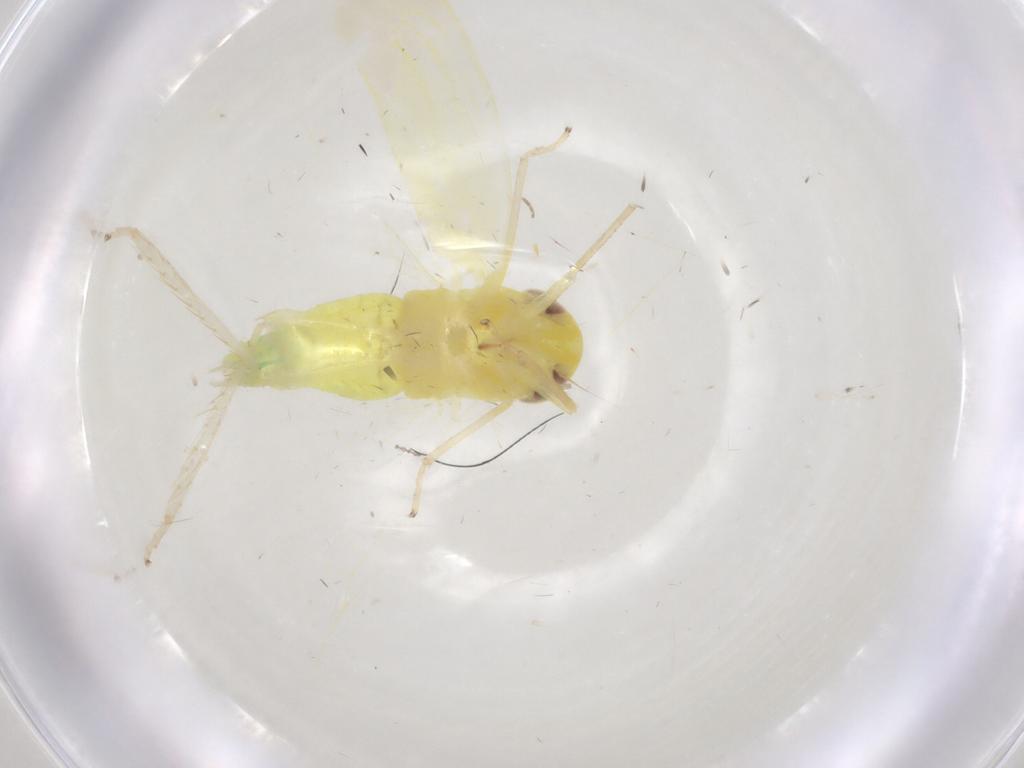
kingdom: Animalia
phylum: Arthropoda
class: Insecta
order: Hemiptera
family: Cicadellidae
